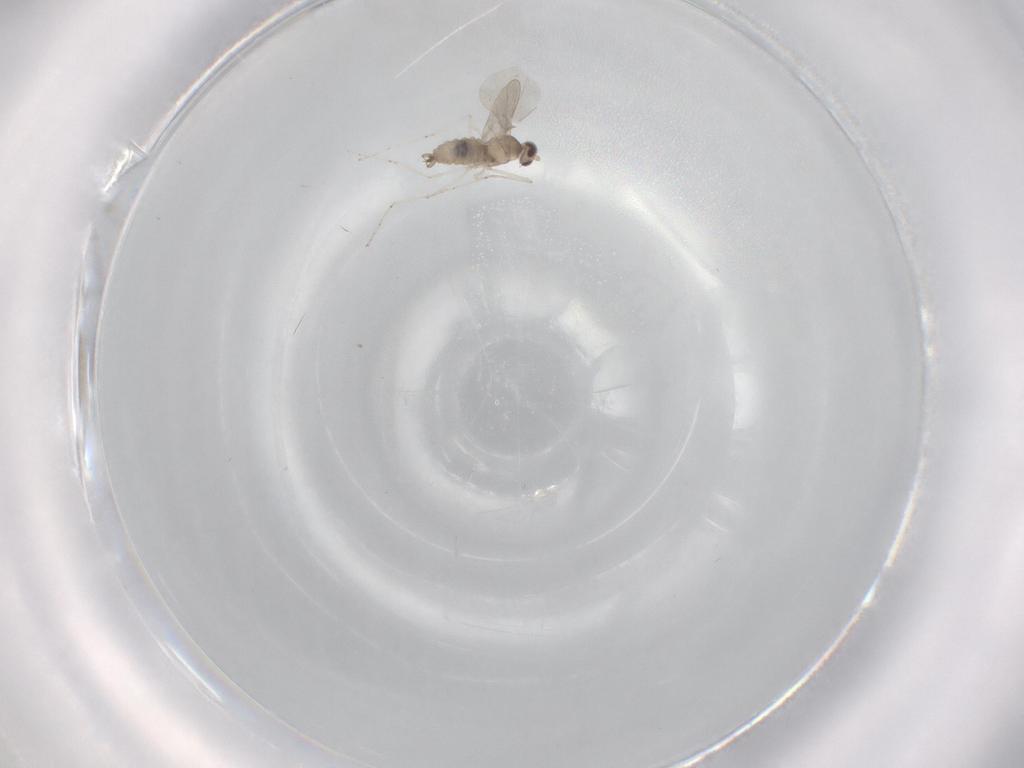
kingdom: Animalia
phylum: Arthropoda
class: Insecta
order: Diptera
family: Cecidomyiidae
